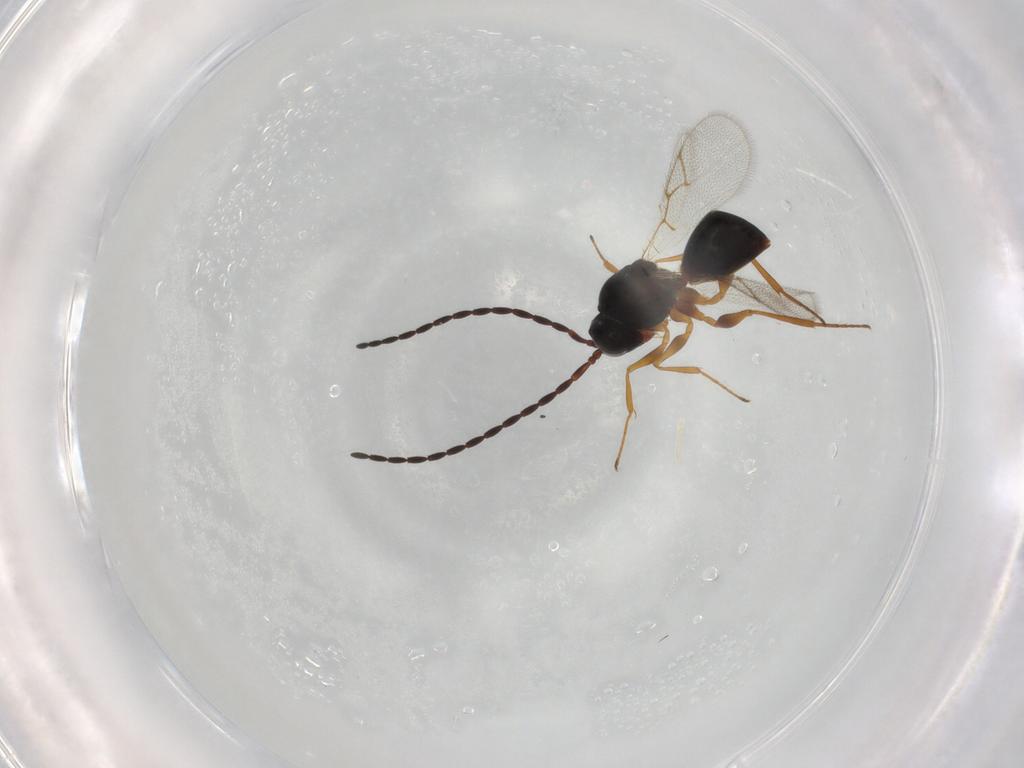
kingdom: Animalia
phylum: Arthropoda
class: Insecta
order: Hymenoptera
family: Figitidae
